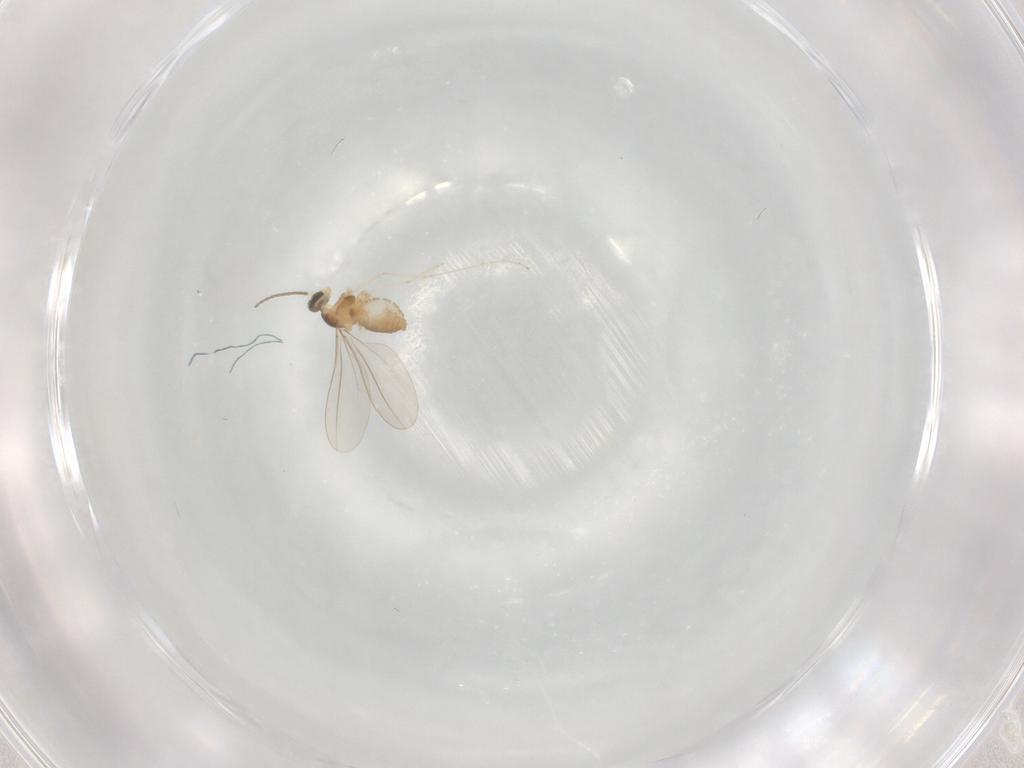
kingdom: Animalia
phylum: Arthropoda
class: Insecta
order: Diptera
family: Cecidomyiidae
